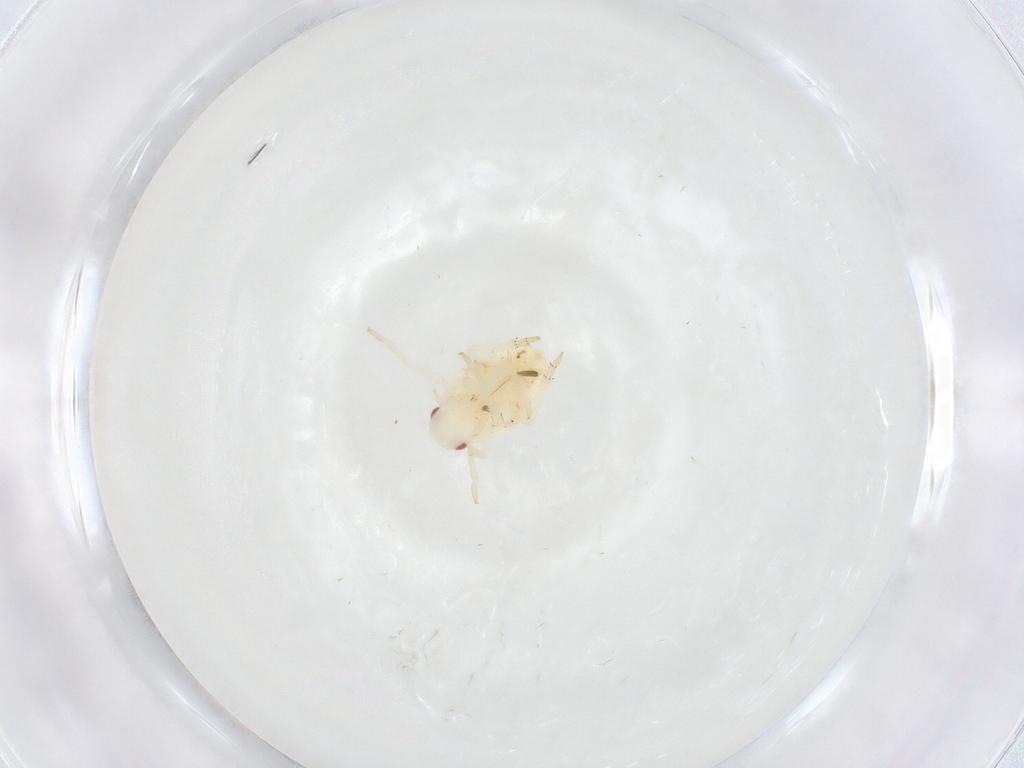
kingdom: Animalia
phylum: Arthropoda
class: Insecta
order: Hemiptera
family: Flatidae
